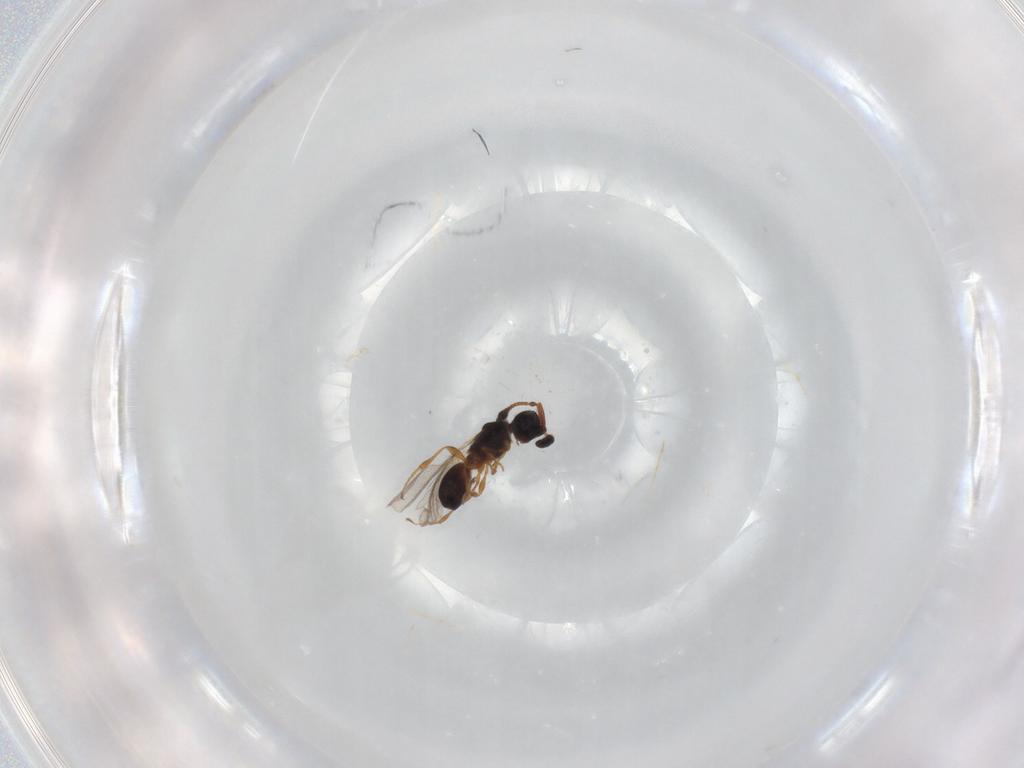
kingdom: Animalia
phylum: Arthropoda
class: Insecta
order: Hymenoptera
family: Diapriidae
